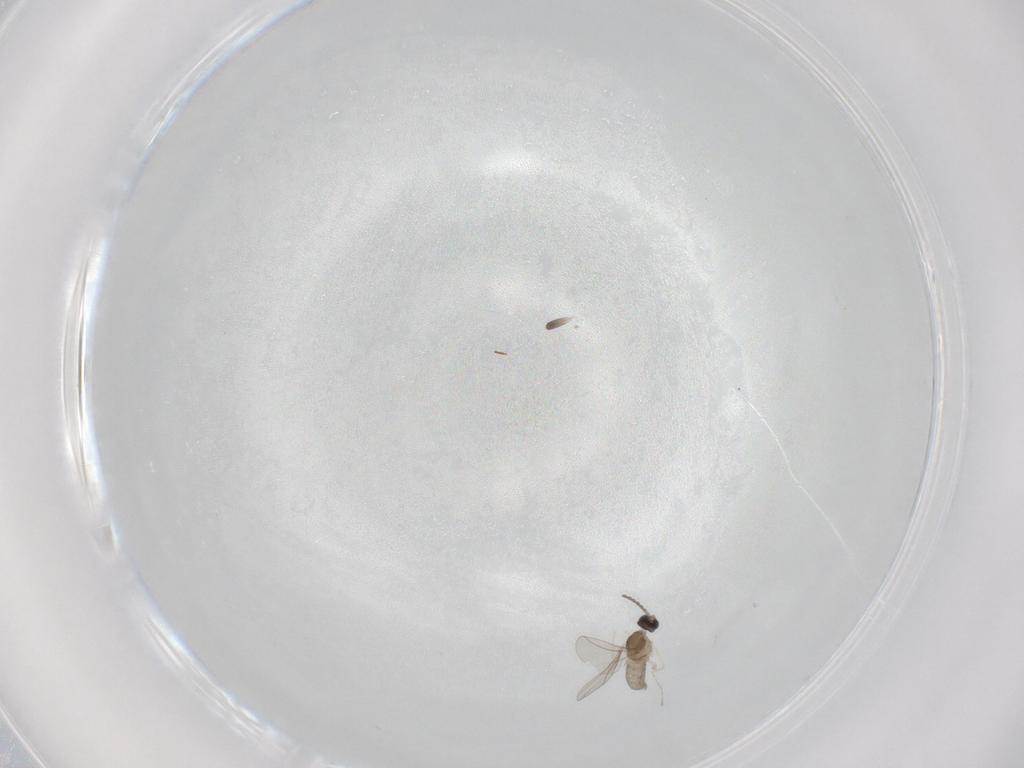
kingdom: Animalia
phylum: Arthropoda
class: Insecta
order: Diptera
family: Cecidomyiidae
